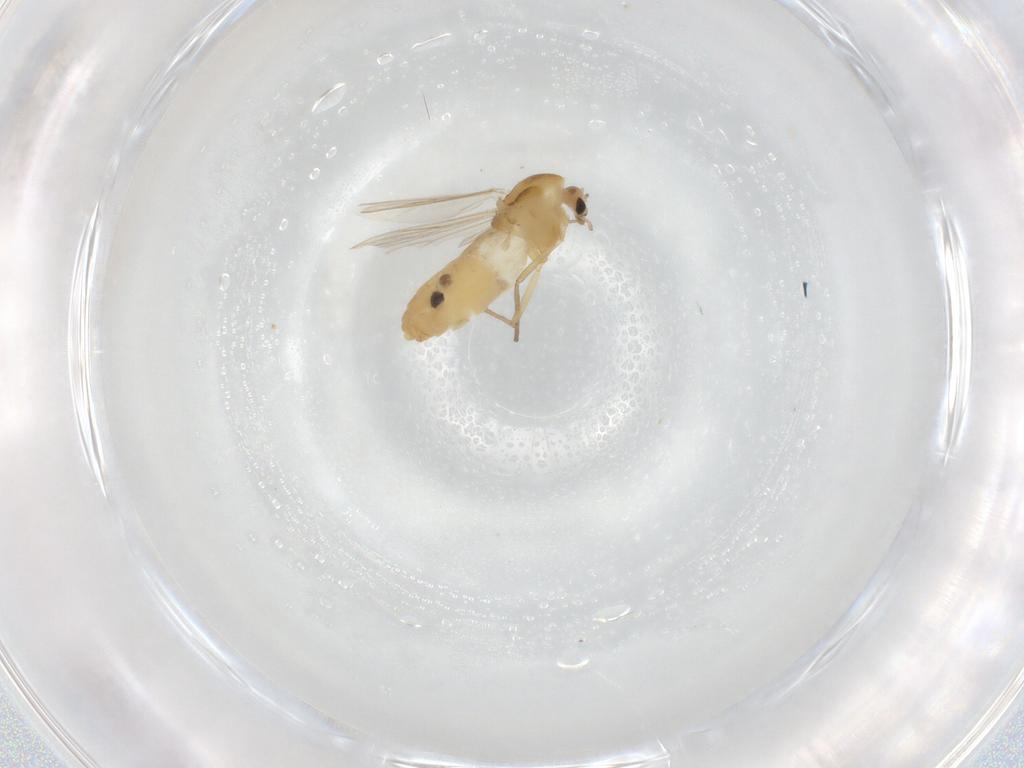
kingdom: Animalia
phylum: Arthropoda
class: Insecta
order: Diptera
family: Chironomidae
